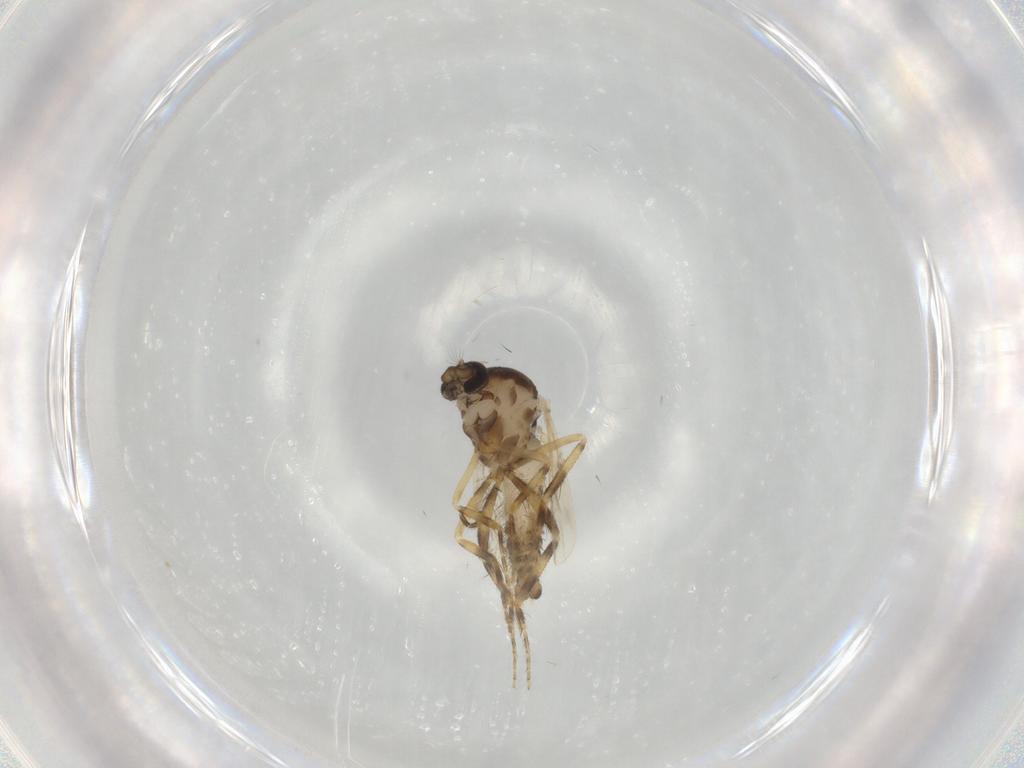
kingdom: Animalia
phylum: Arthropoda
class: Insecta
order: Diptera
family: Ceratopogonidae
